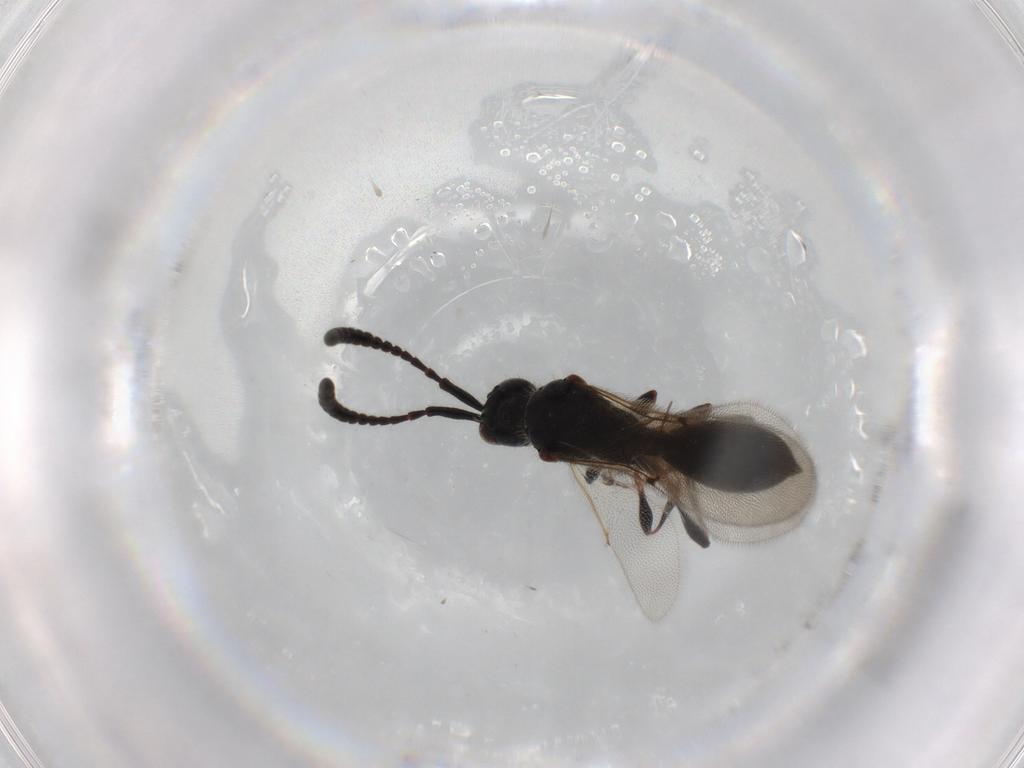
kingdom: Animalia
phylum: Arthropoda
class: Insecta
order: Hymenoptera
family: Diapriidae
